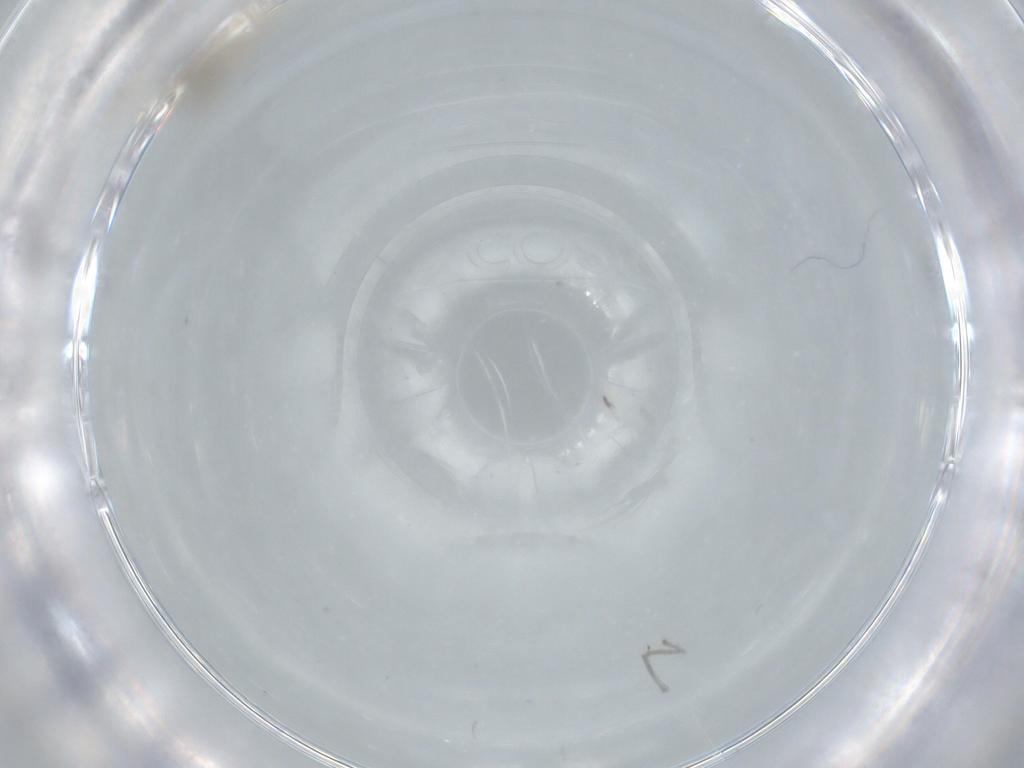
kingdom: Animalia
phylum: Arthropoda
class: Insecta
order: Diptera
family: Cecidomyiidae
